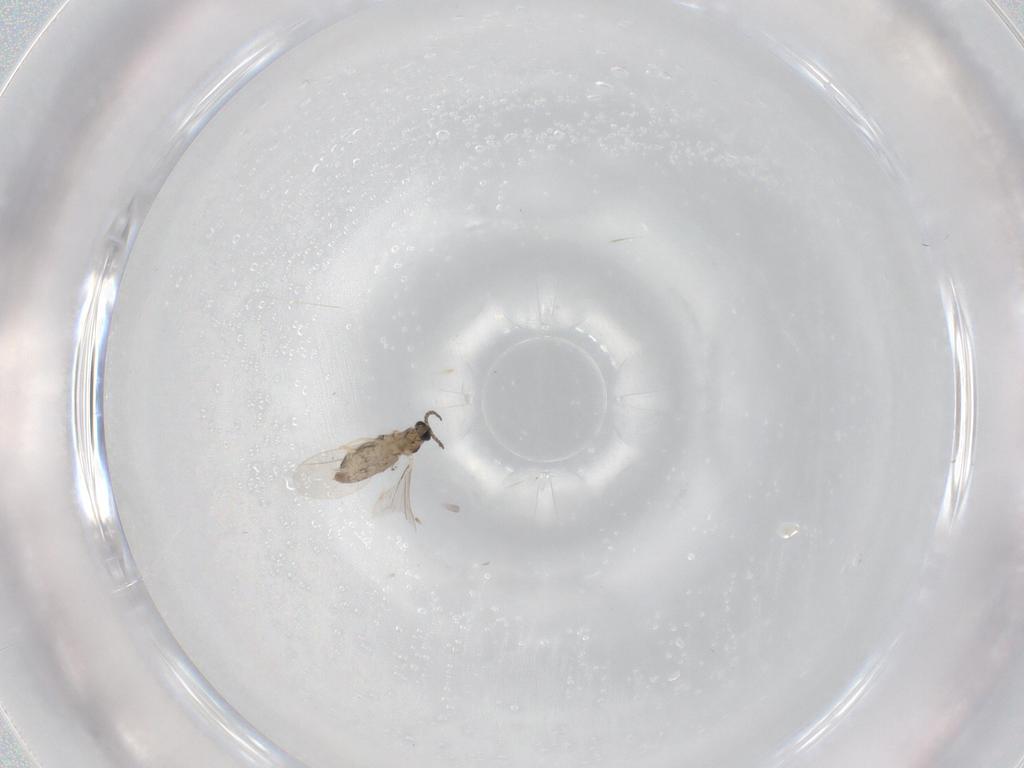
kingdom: Animalia
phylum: Arthropoda
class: Insecta
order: Diptera
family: Cecidomyiidae
